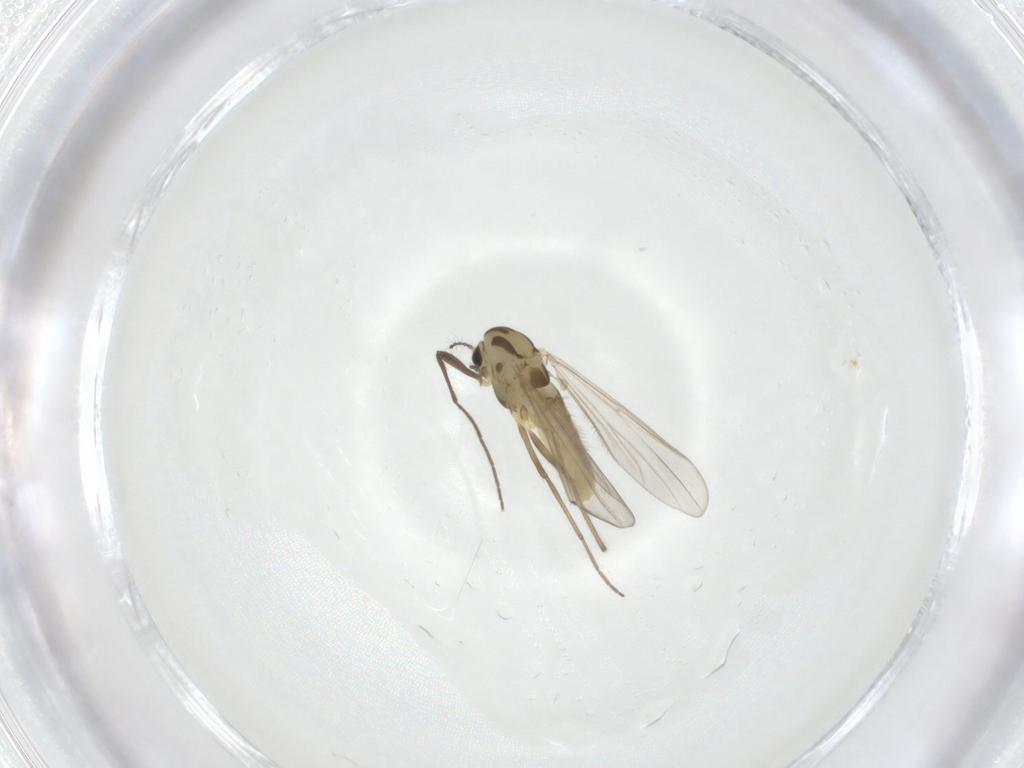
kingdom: Animalia
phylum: Arthropoda
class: Insecta
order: Diptera
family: Chironomidae
